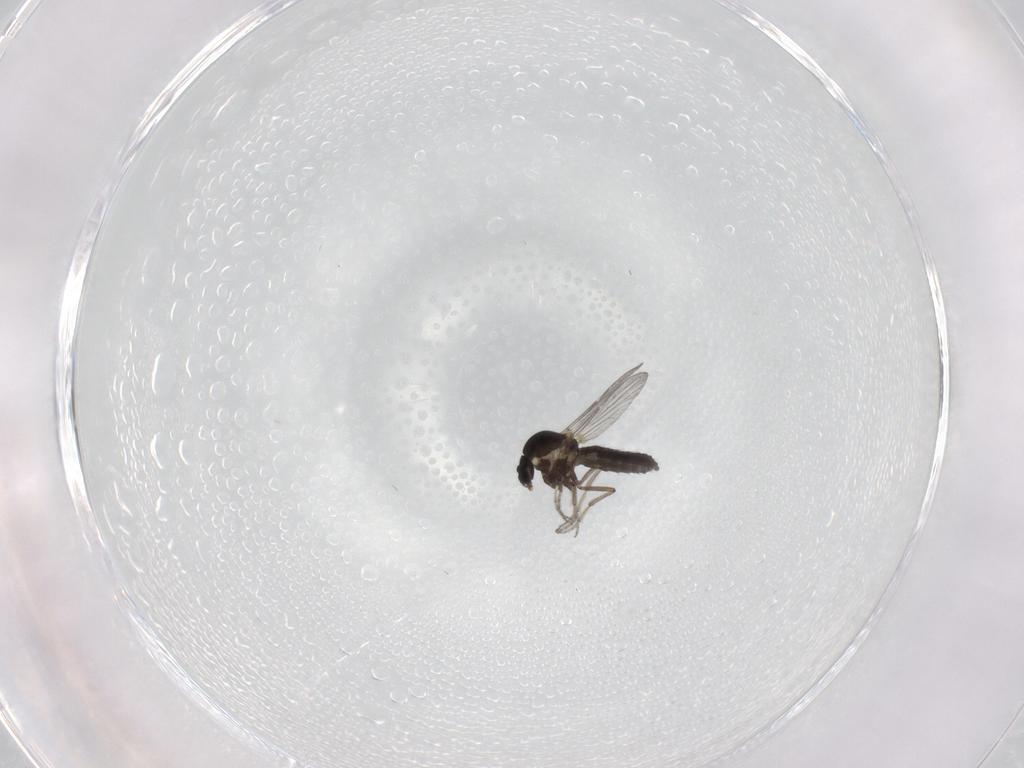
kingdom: Animalia
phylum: Arthropoda
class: Insecta
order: Diptera
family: Ceratopogonidae
